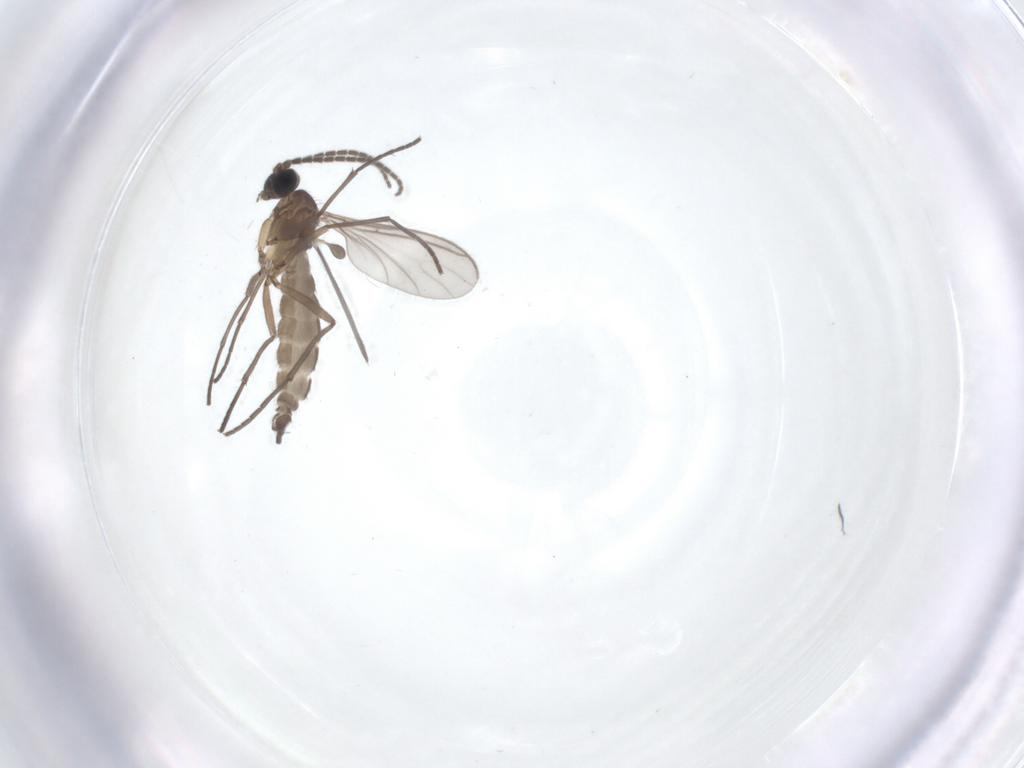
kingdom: Animalia
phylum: Arthropoda
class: Insecta
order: Diptera
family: Sciaridae
